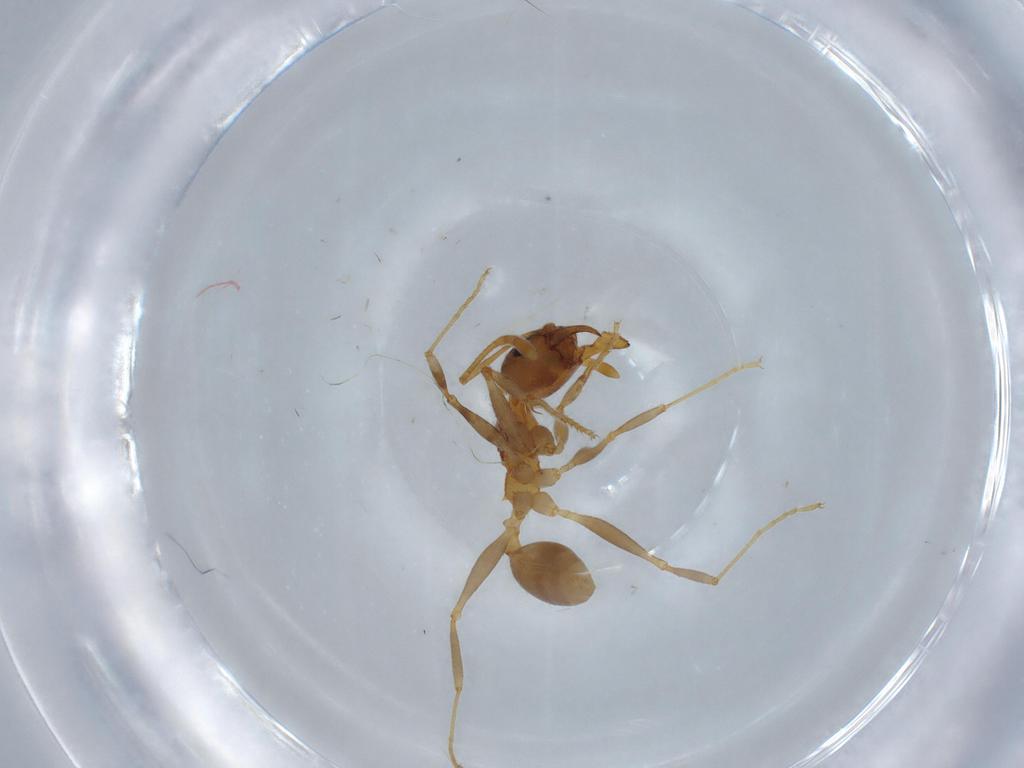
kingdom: Animalia
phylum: Arthropoda
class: Insecta
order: Hymenoptera
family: Formicidae
